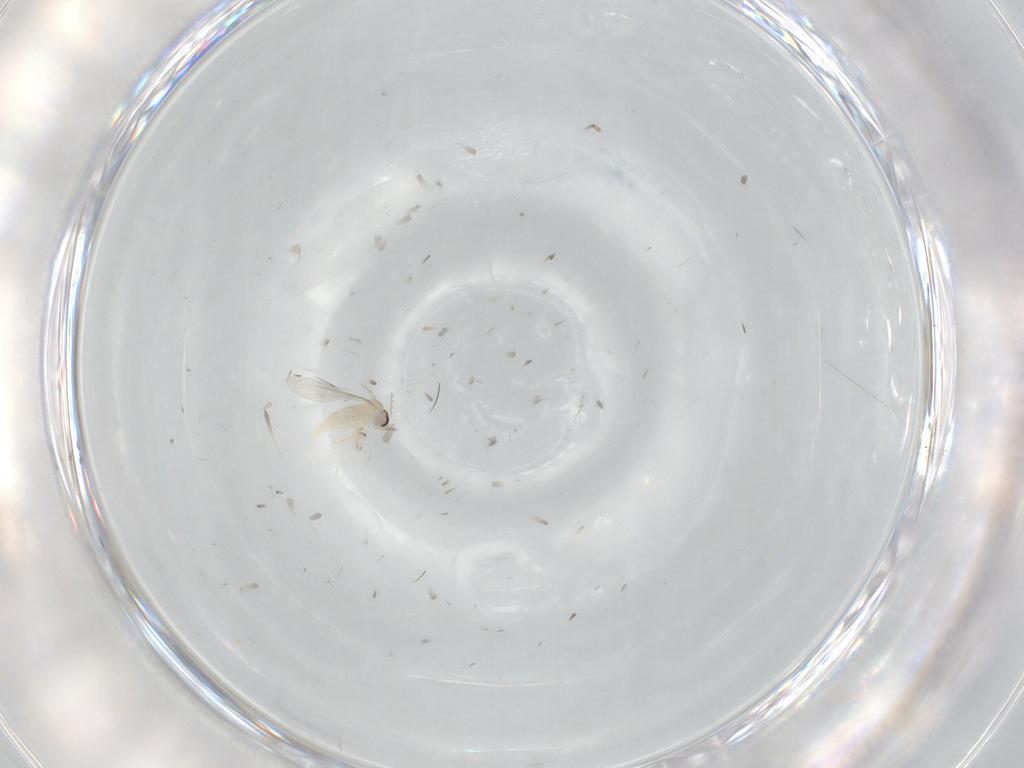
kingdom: Animalia
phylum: Arthropoda
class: Insecta
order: Diptera
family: Cecidomyiidae
